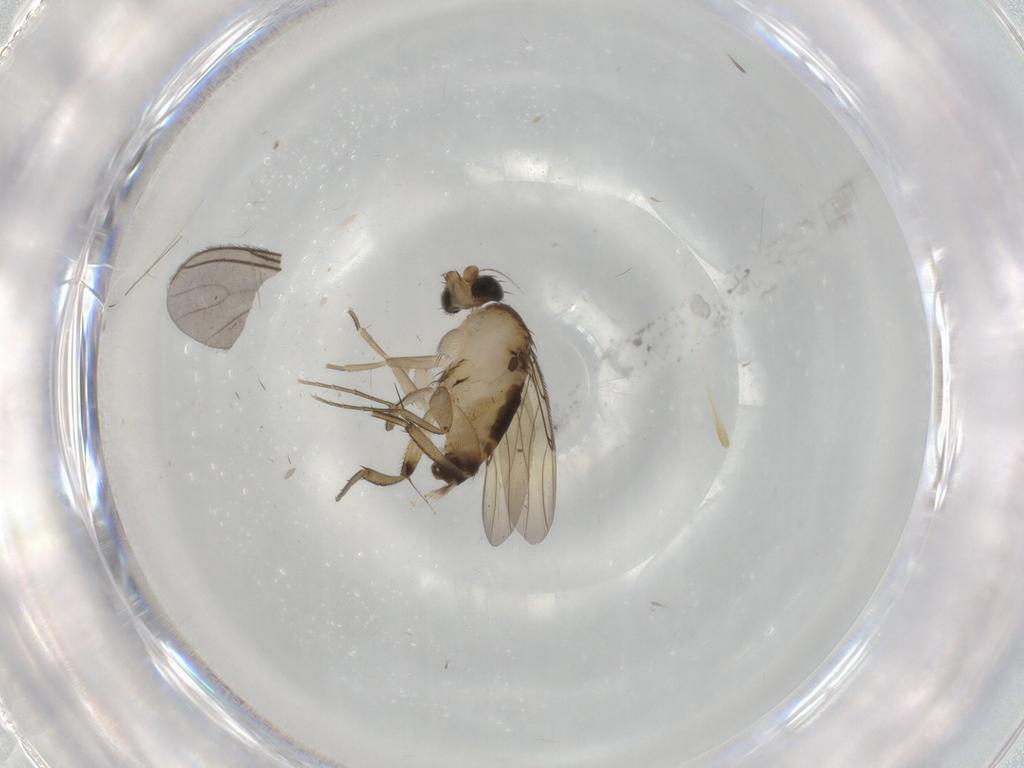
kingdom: Animalia
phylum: Arthropoda
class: Insecta
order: Diptera
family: Phoridae
